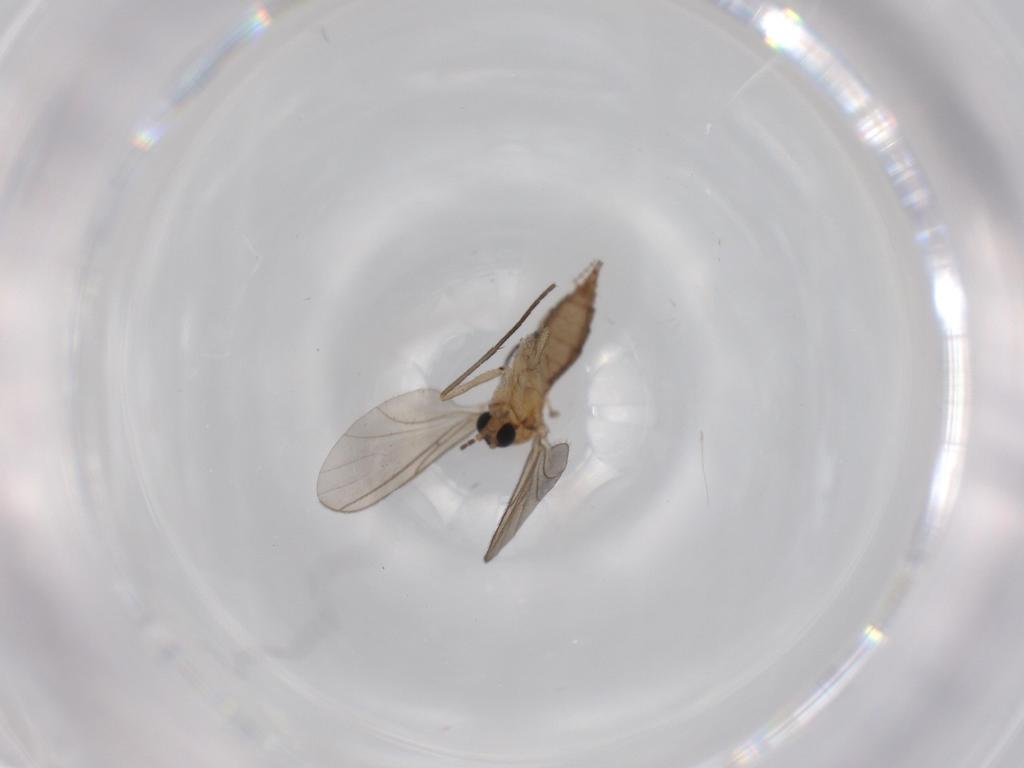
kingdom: Animalia
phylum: Arthropoda
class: Insecta
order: Diptera
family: Sciaridae
